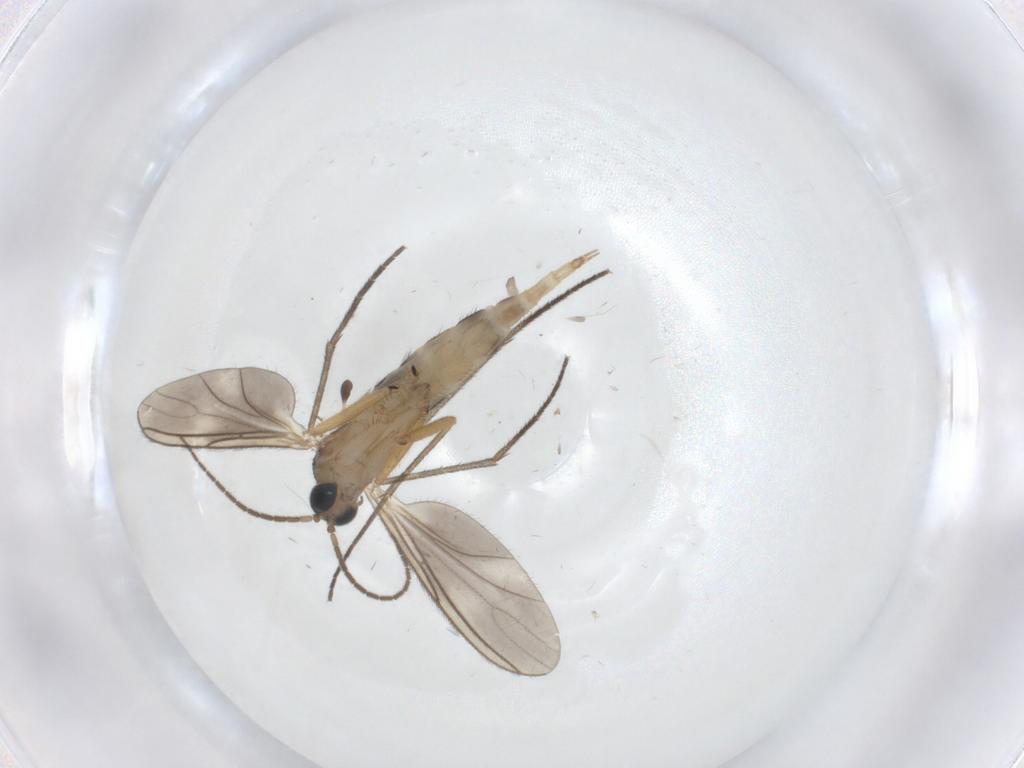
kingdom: Animalia
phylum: Arthropoda
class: Insecta
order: Diptera
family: Sciaridae
